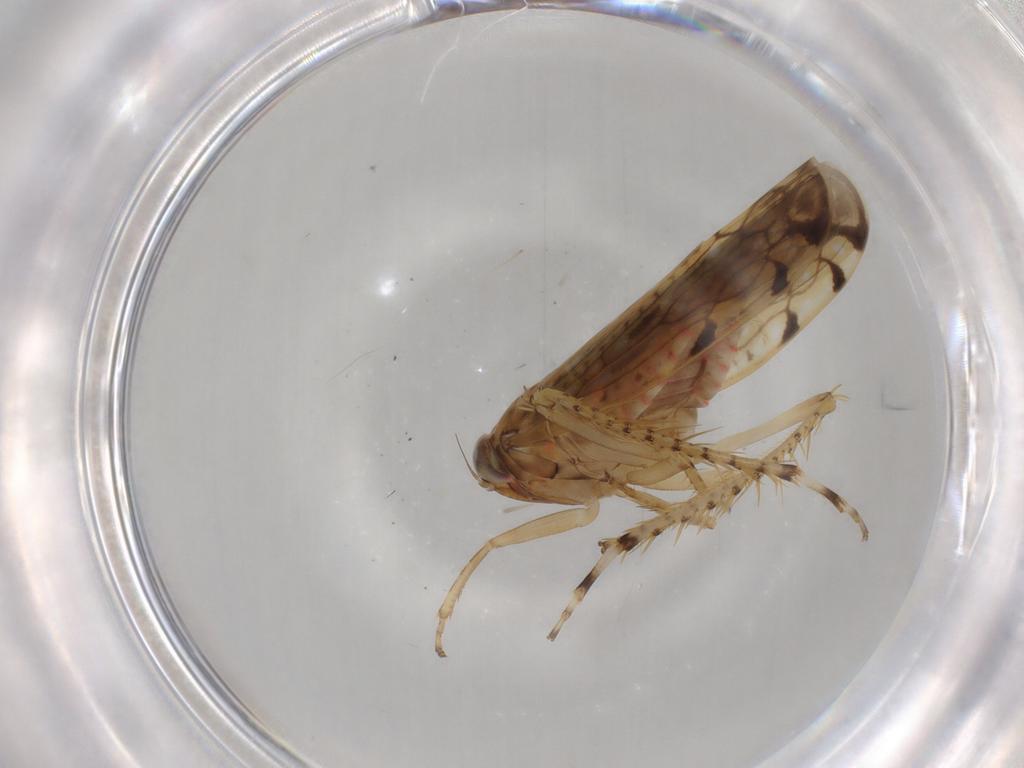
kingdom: Animalia
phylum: Arthropoda
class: Insecta
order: Hemiptera
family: Cicadellidae
